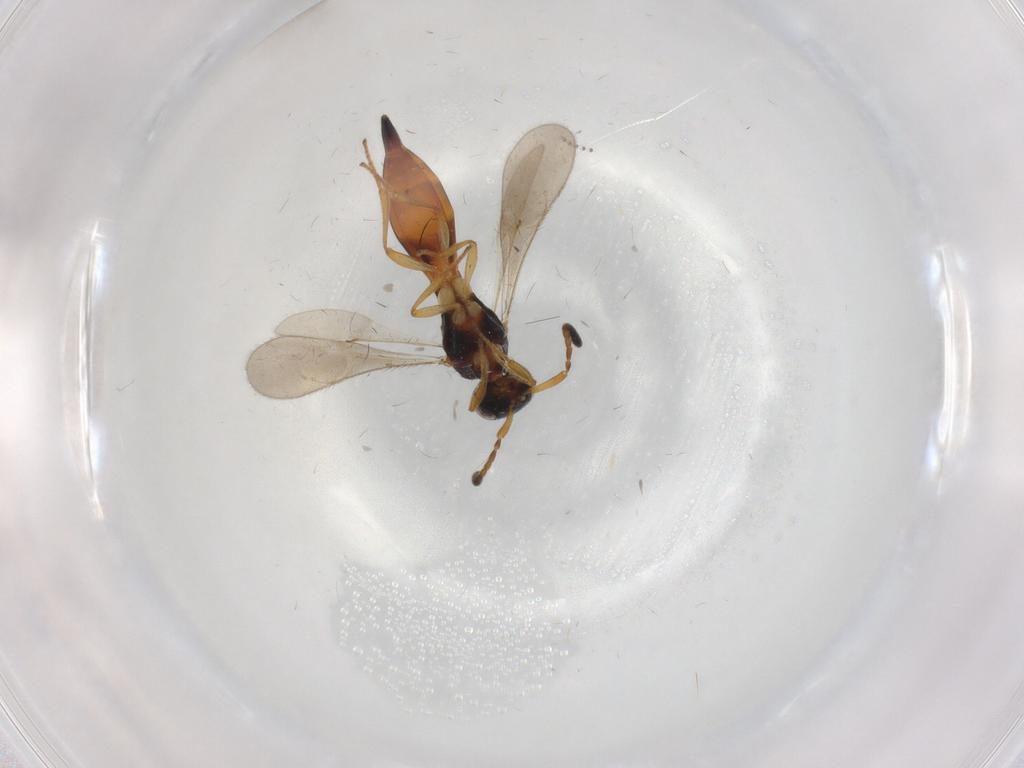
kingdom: Animalia
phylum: Arthropoda
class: Insecta
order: Hymenoptera
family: Scelionidae
